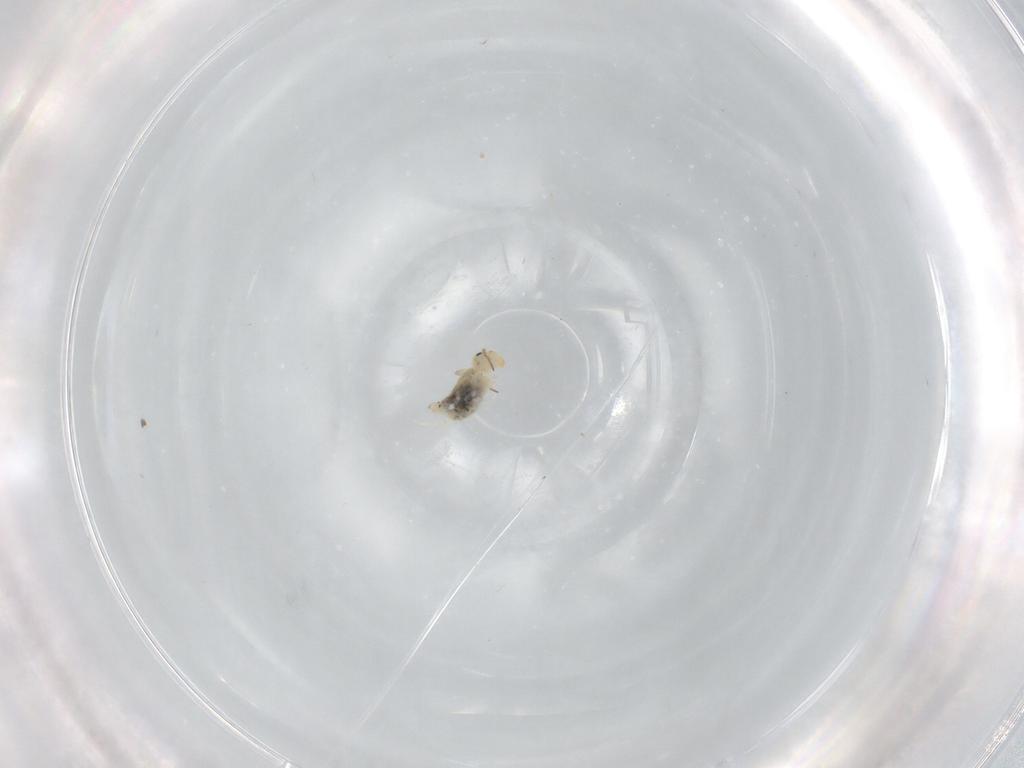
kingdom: Animalia
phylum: Arthropoda
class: Collembola
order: Symphypleona
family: Bourletiellidae
